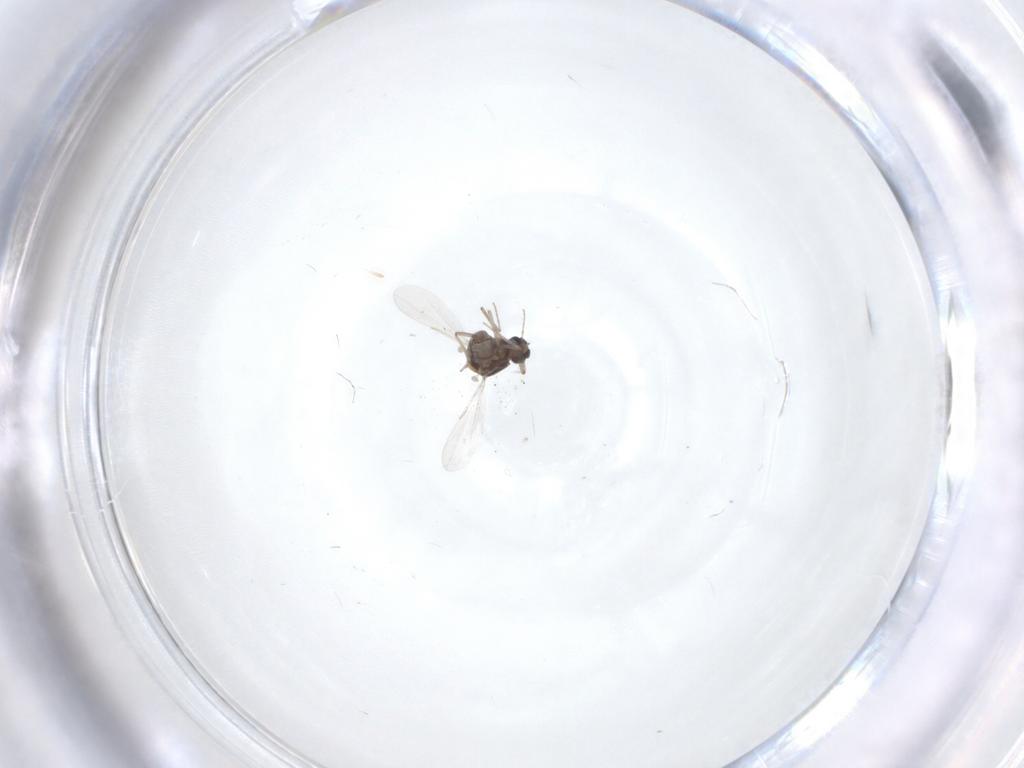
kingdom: Animalia
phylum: Arthropoda
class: Insecta
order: Diptera
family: Ceratopogonidae
